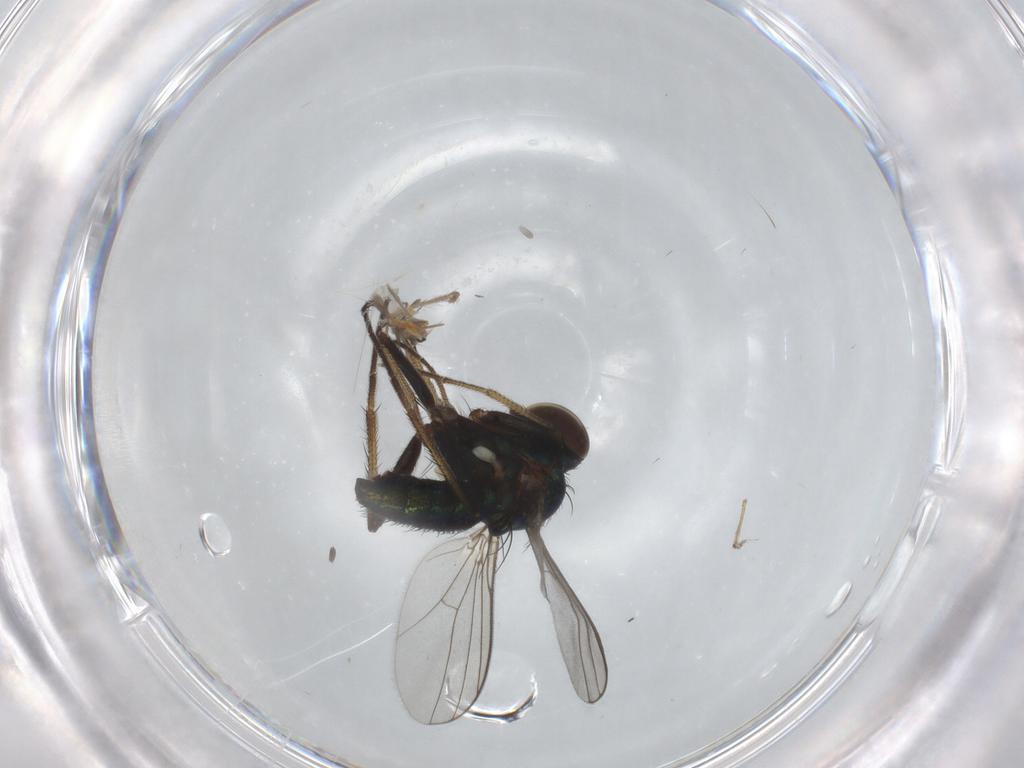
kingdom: Animalia
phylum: Arthropoda
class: Insecta
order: Diptera
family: Dolichopodidae
